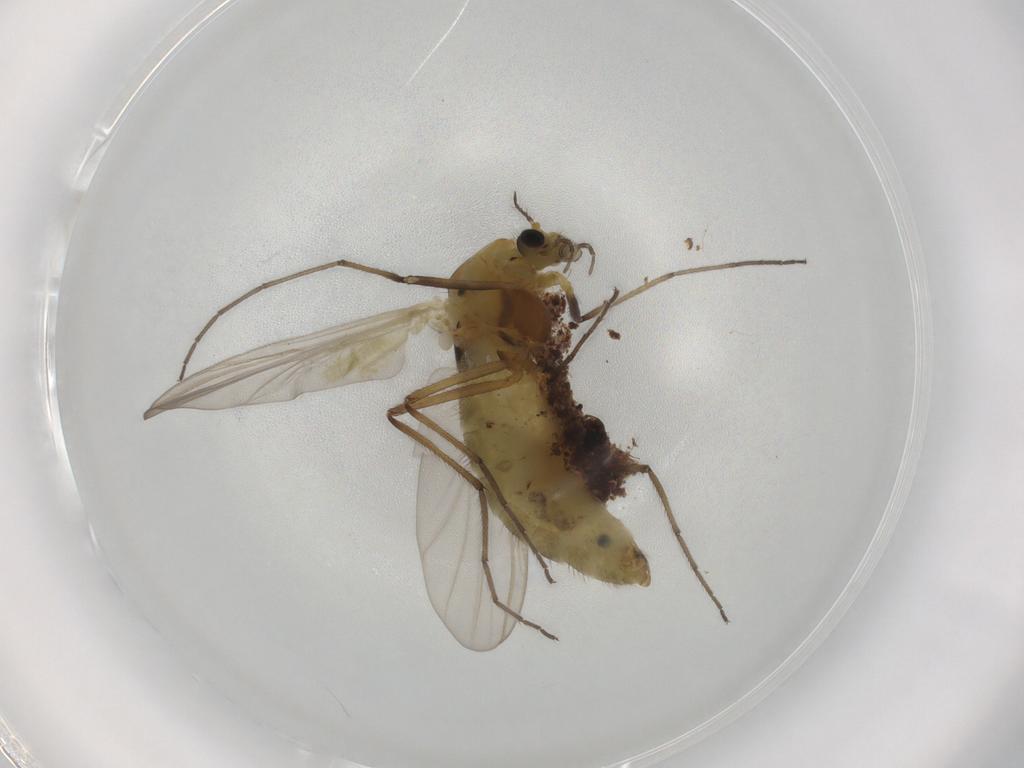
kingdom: Animalia
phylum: Arthropoda
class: Insecta
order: Diptera
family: Chironomidae
